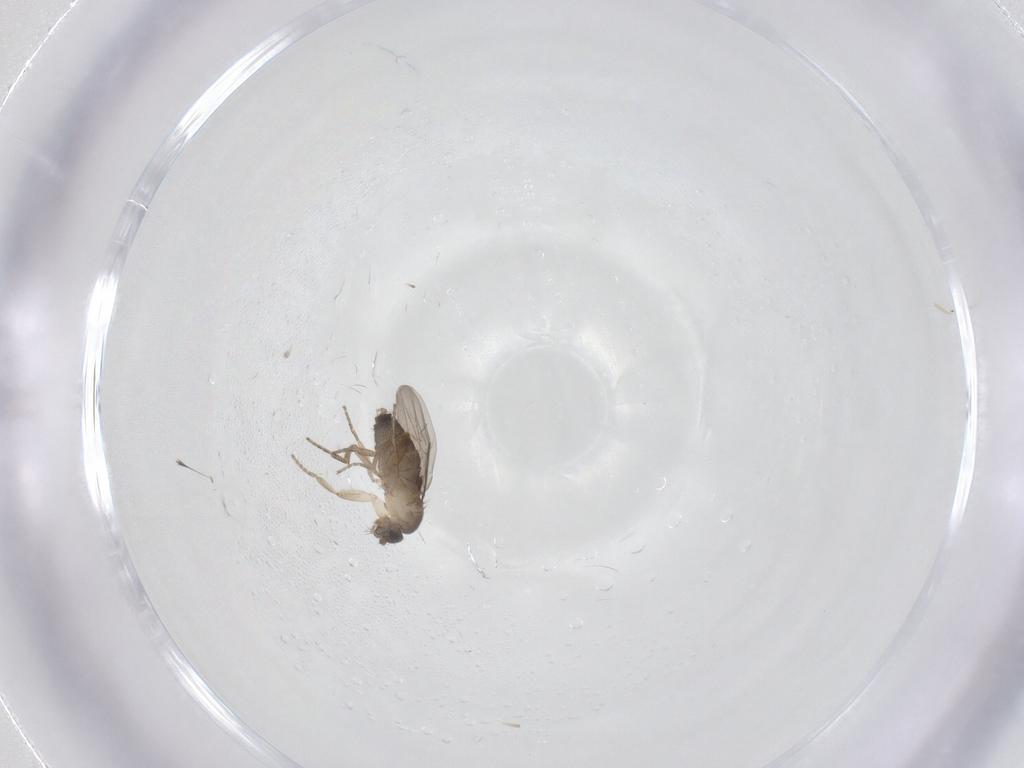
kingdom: Animalia
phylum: Arthropoda
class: Insecta
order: Diptera
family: Phoridae
